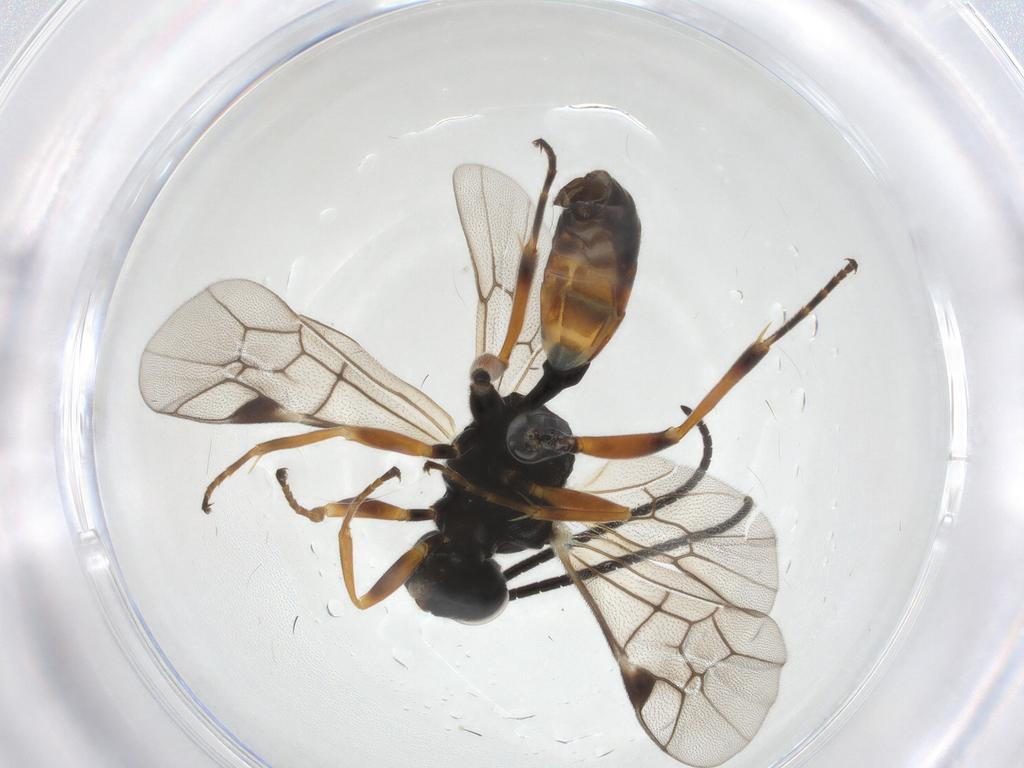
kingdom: Animalia
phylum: Arthropoda
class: Insecta
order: Hymenoptera
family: Ichneumonidae
